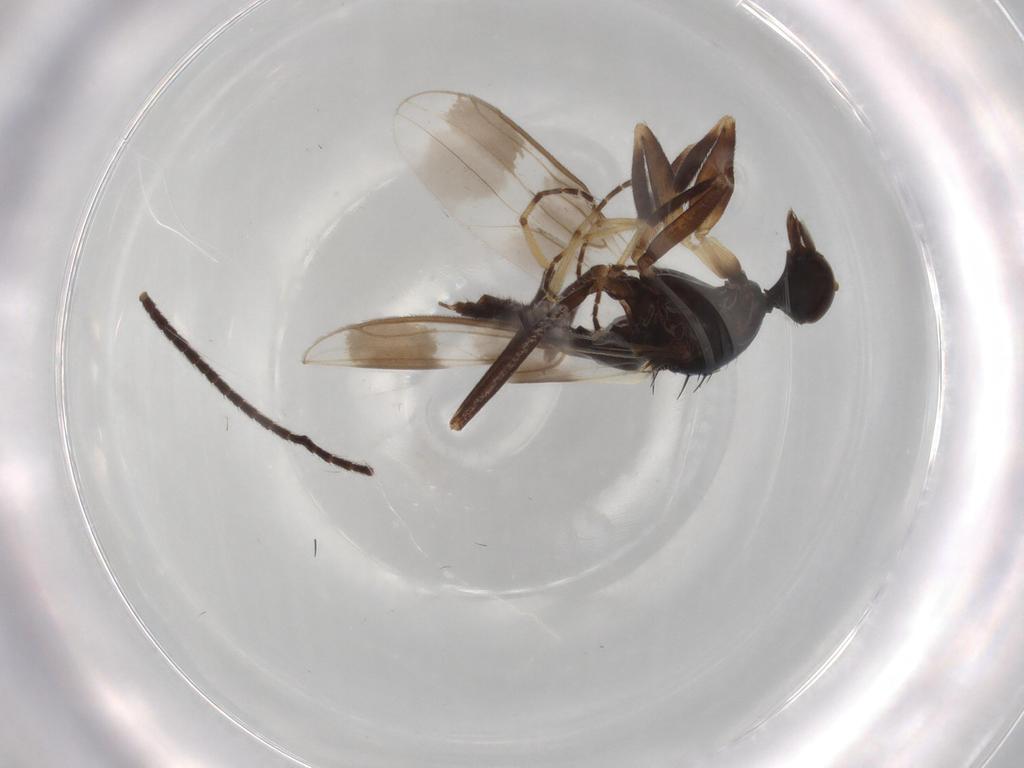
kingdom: Animalia
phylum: Arthropoda
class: Insecta
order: Diptera
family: Hybotidae
